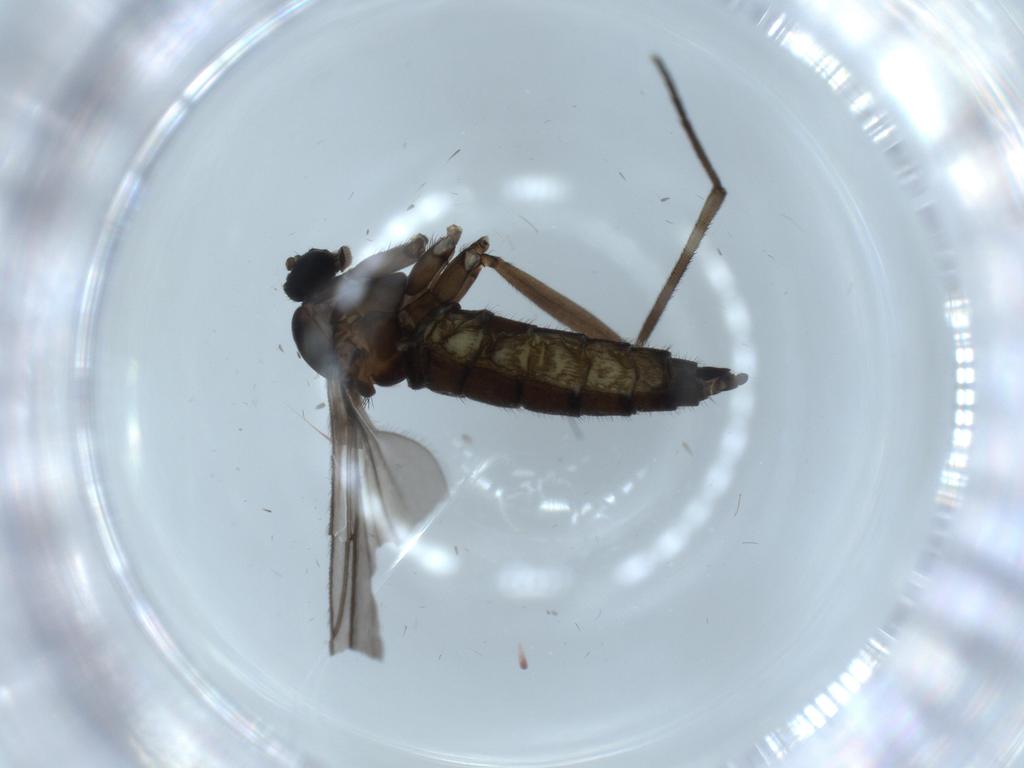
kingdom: Animalia
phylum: Arthropoda
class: Insecta
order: Diptera
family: Sciaridae
